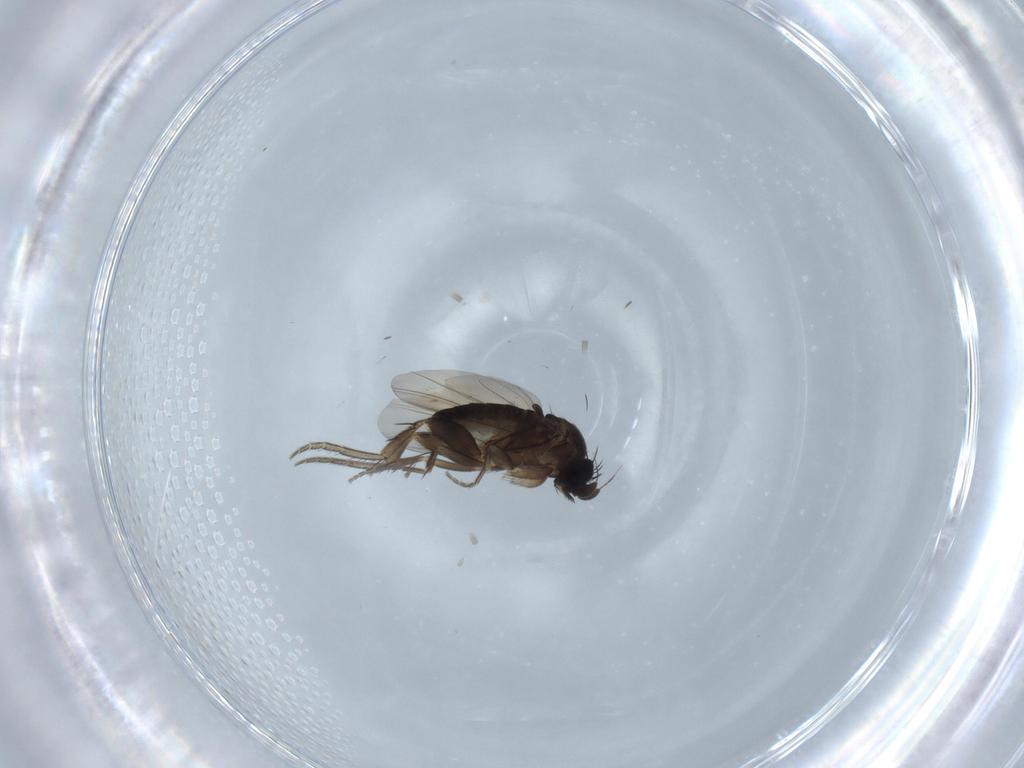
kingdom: Animalia
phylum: Arthropoda
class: Insecta
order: Diptera
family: Phoridae
